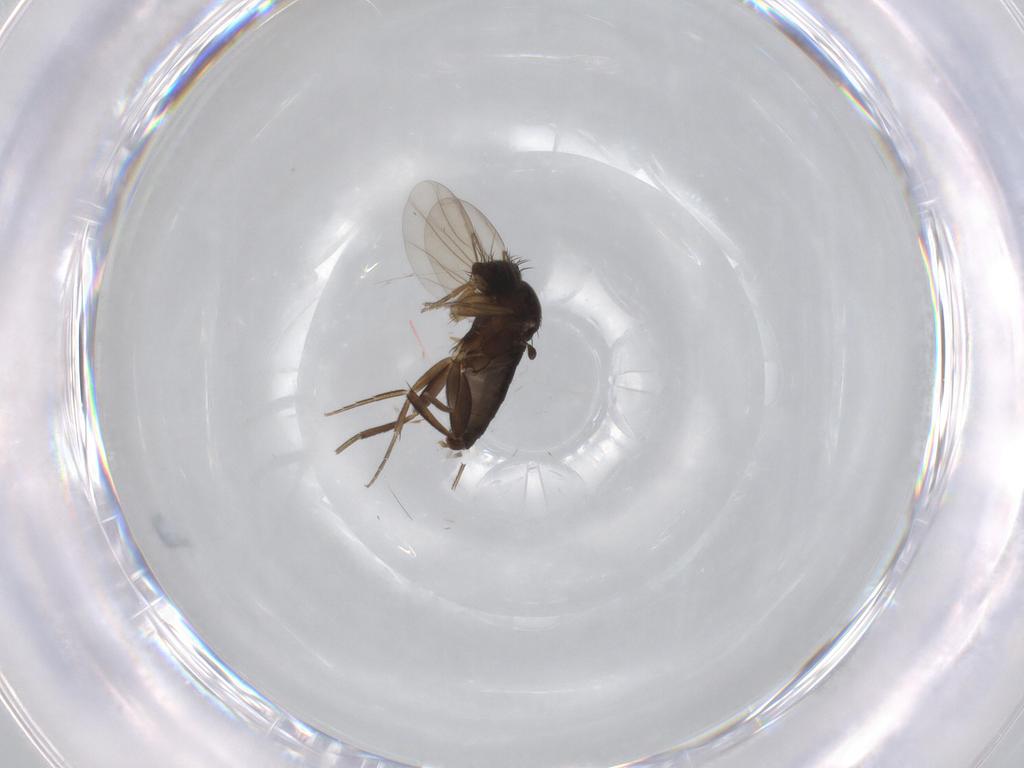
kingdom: Animalia
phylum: Arthropoda
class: Insecta
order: Diptera
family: Phoridae
